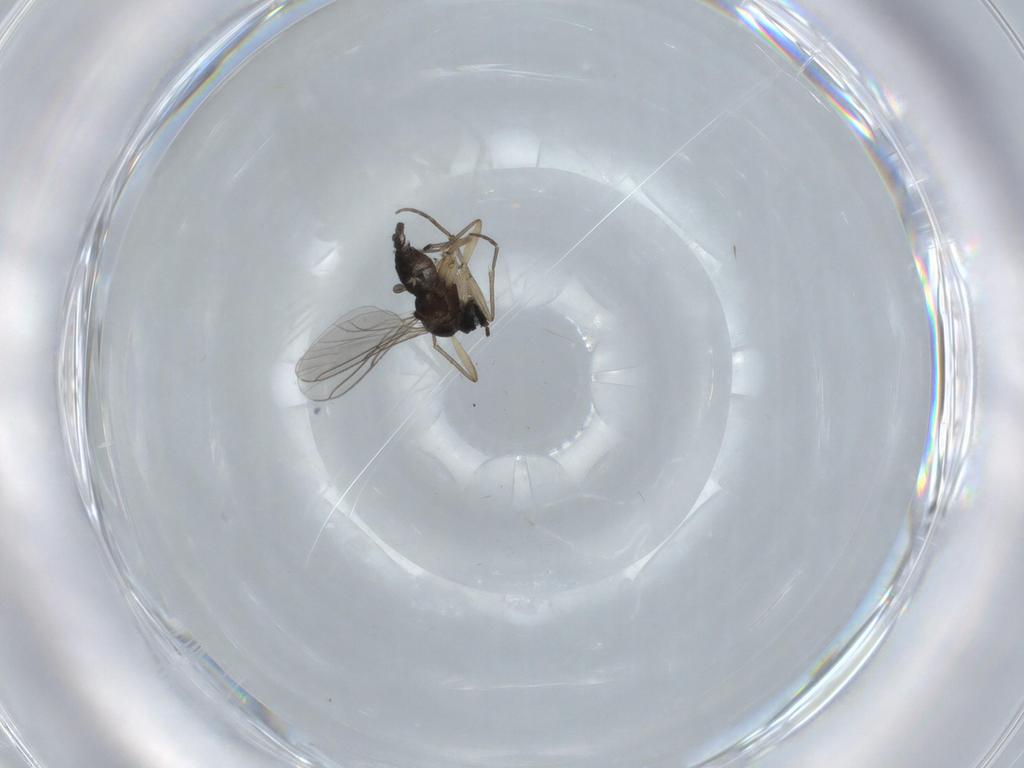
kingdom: Animalia
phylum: Arthropoda
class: Insecta
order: Diptera
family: Sciaridae
